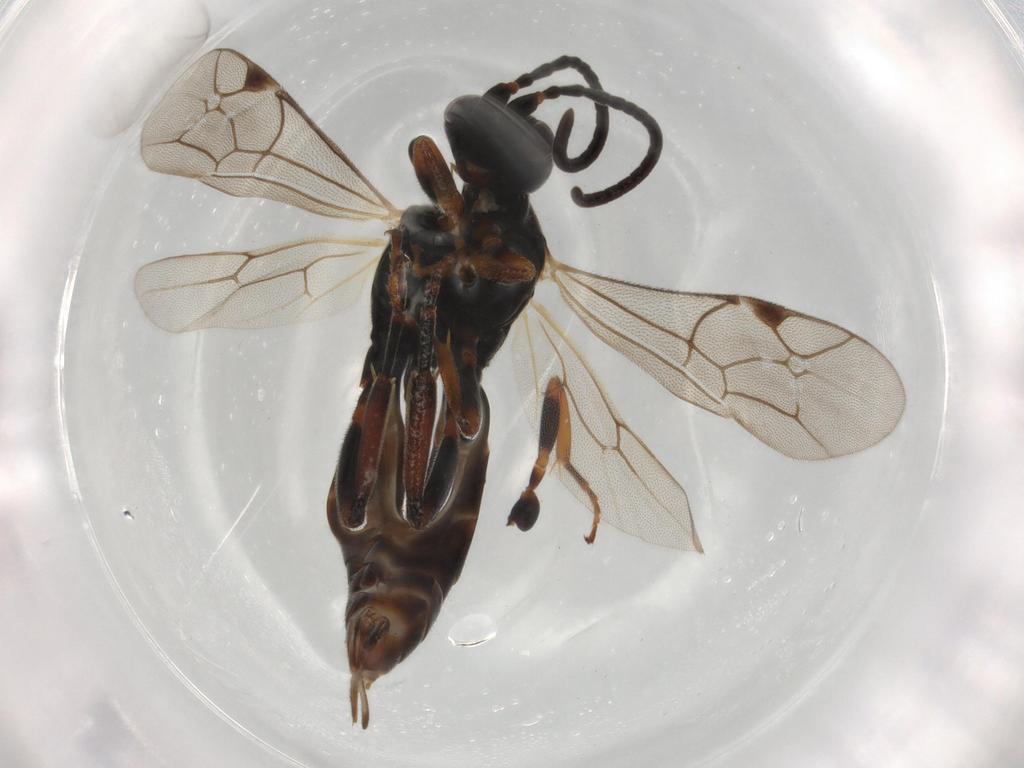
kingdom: Animalia
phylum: Arthropoda
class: Insecta
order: Hymenoptera
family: Ichneumonidae
